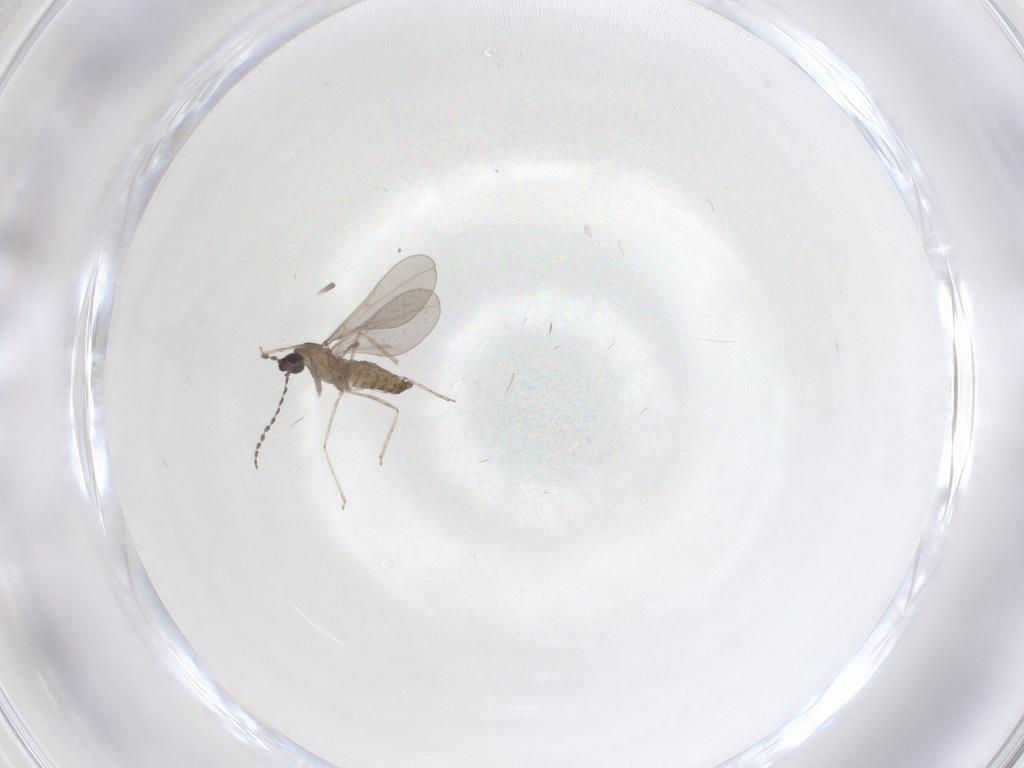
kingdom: Animalia
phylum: Arthropoda
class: Insecta
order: Diptera
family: Cecidomyiidae
